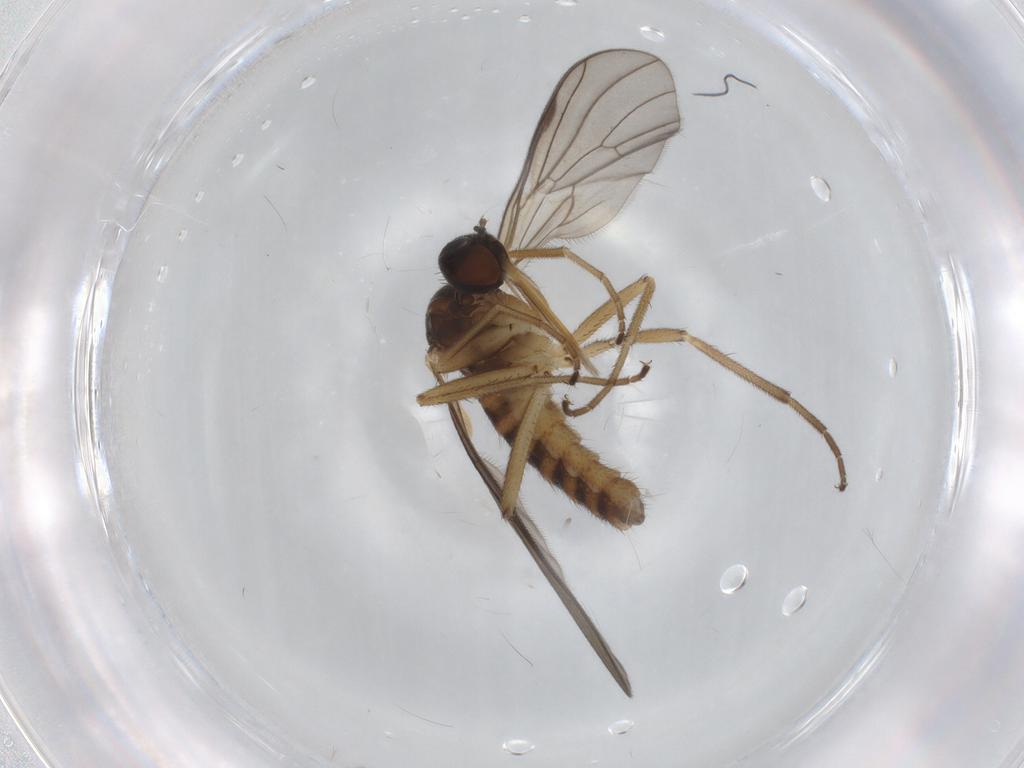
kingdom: Animalia
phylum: Arthropoda
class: Insecta
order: Diptera
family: Empididae
